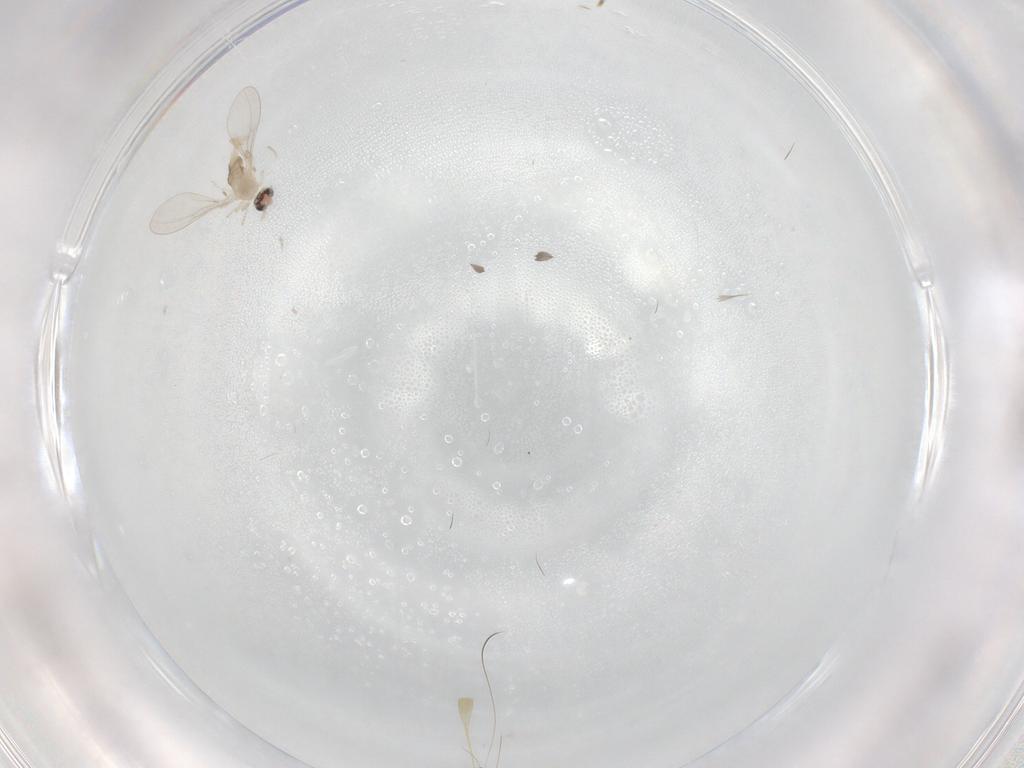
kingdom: Animalia
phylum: Arthropoda
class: Insecta
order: Diptera
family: Cecidomyiidae
